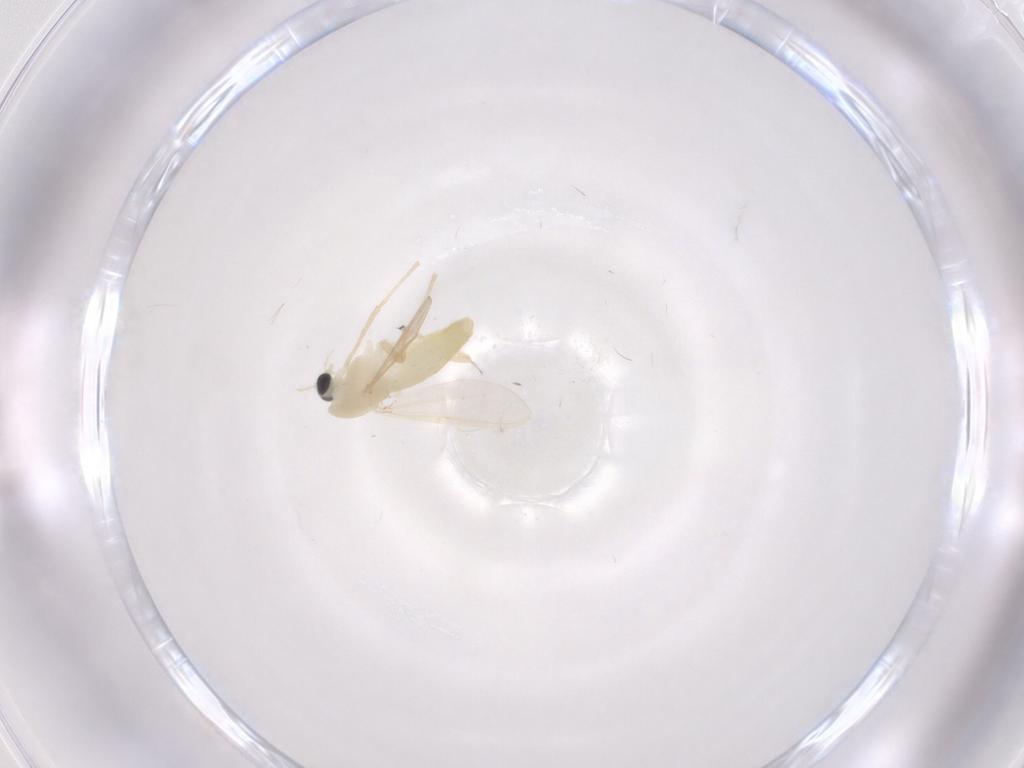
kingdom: Animalia
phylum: Arthropoda
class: Insecta
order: Diptera
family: Chironomidae
